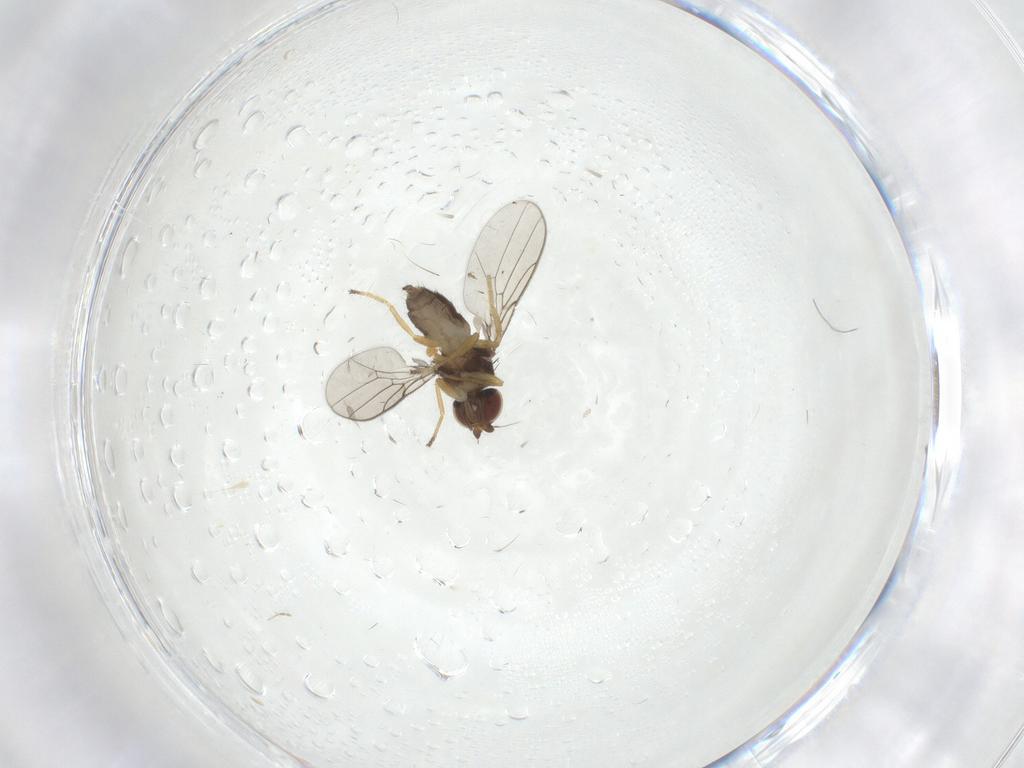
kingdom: Animalia
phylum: Arthropoda
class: Insecta
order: Diptera
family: Chloropidae
